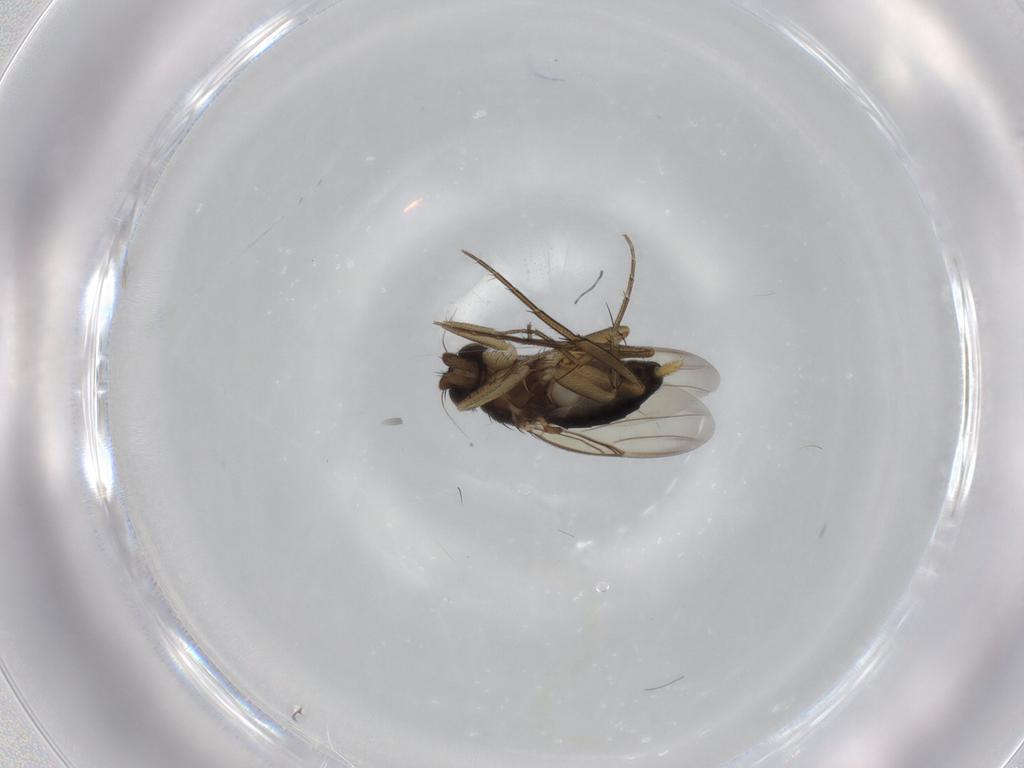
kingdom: Animalia
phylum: Arthropoda
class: Insecta
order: Diptera
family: Phoridae
